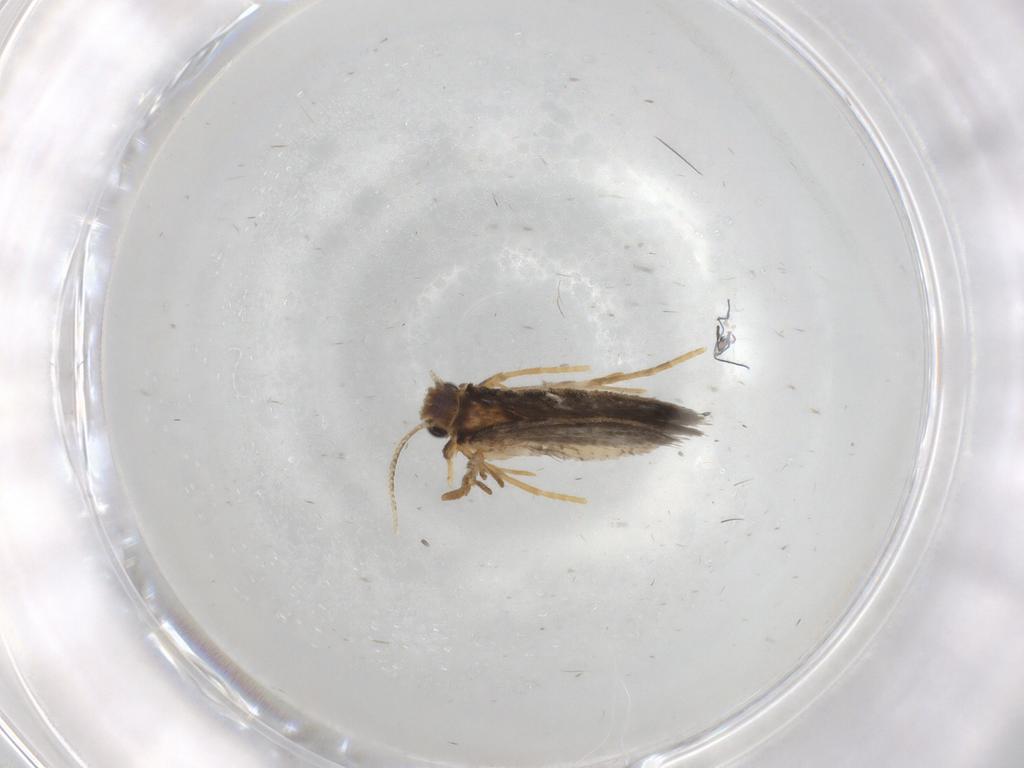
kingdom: Animalia
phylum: Arthropoda
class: Insecta
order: Lepidoptera
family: Psychidae
